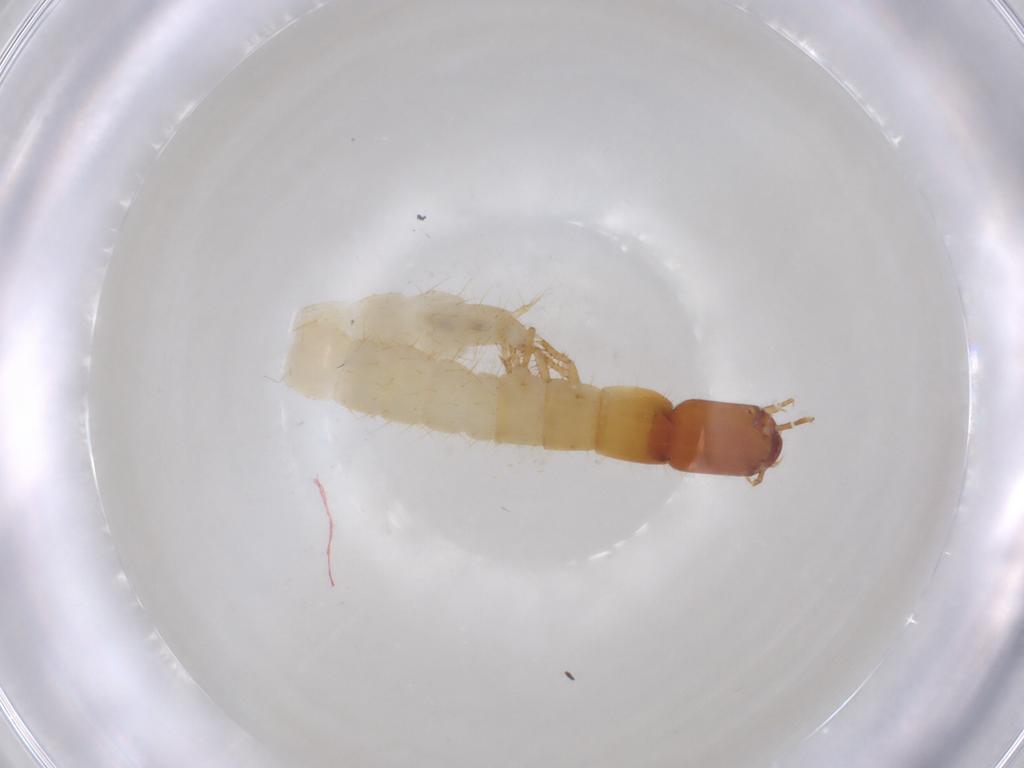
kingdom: Animalia
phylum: Arthropoda
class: Insecta
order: Coleoptera
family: Staphylinidae
